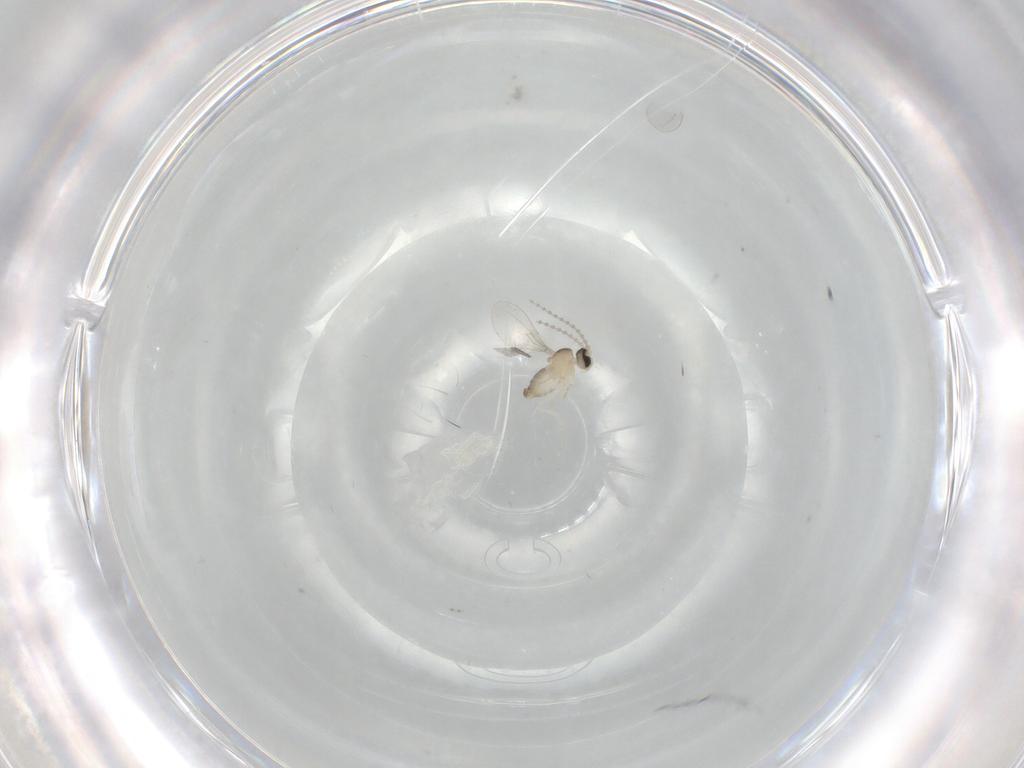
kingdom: Animalia
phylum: Arthropoda
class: Insecta
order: Diptera
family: Cecidomyiidae
